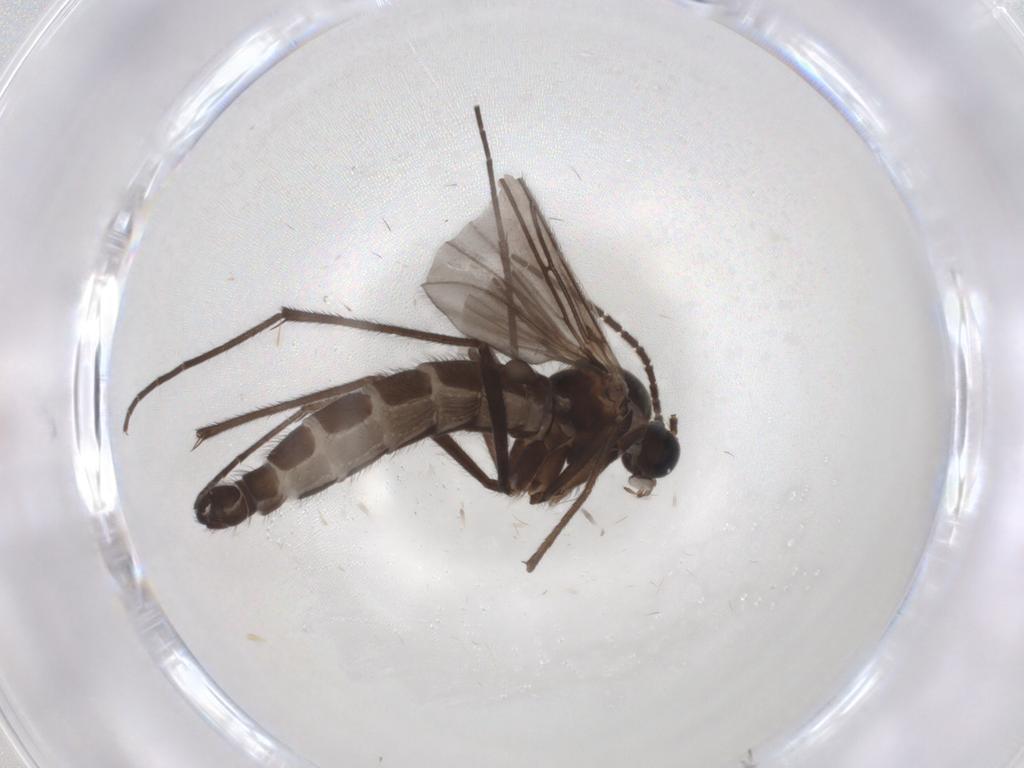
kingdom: Animalia
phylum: Arthropoda
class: Insecta
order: Diptera
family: Sciaridae
